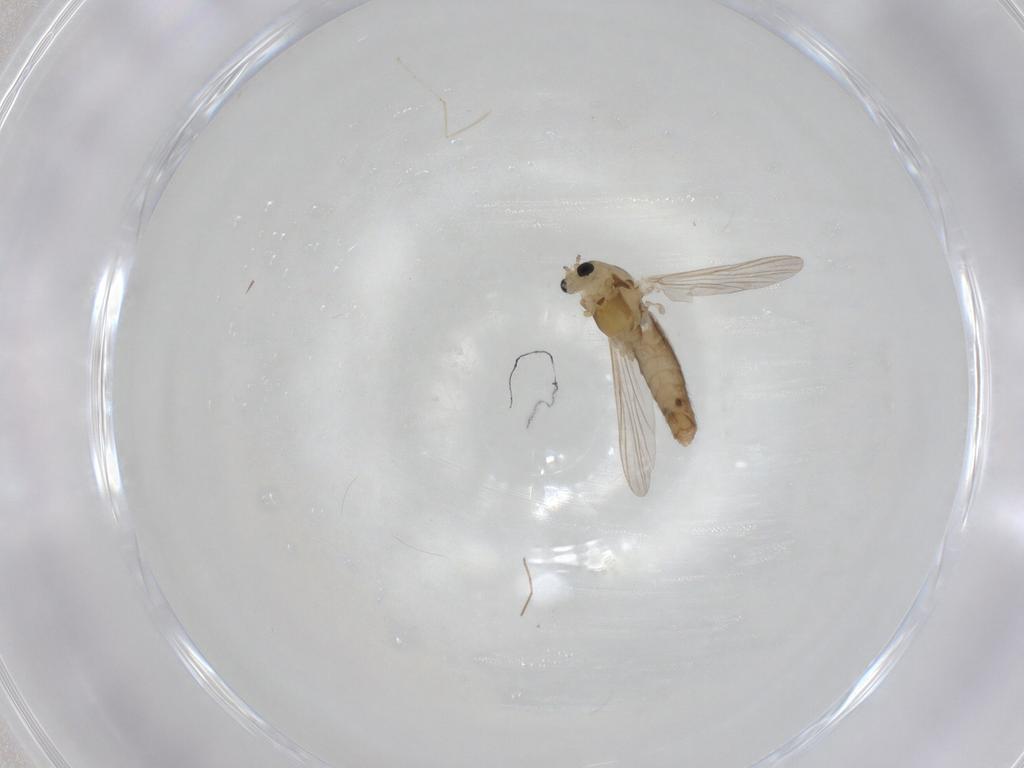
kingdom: Animalia
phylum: Arthropoda
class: Insecta
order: Diptera
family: Chironomidae
